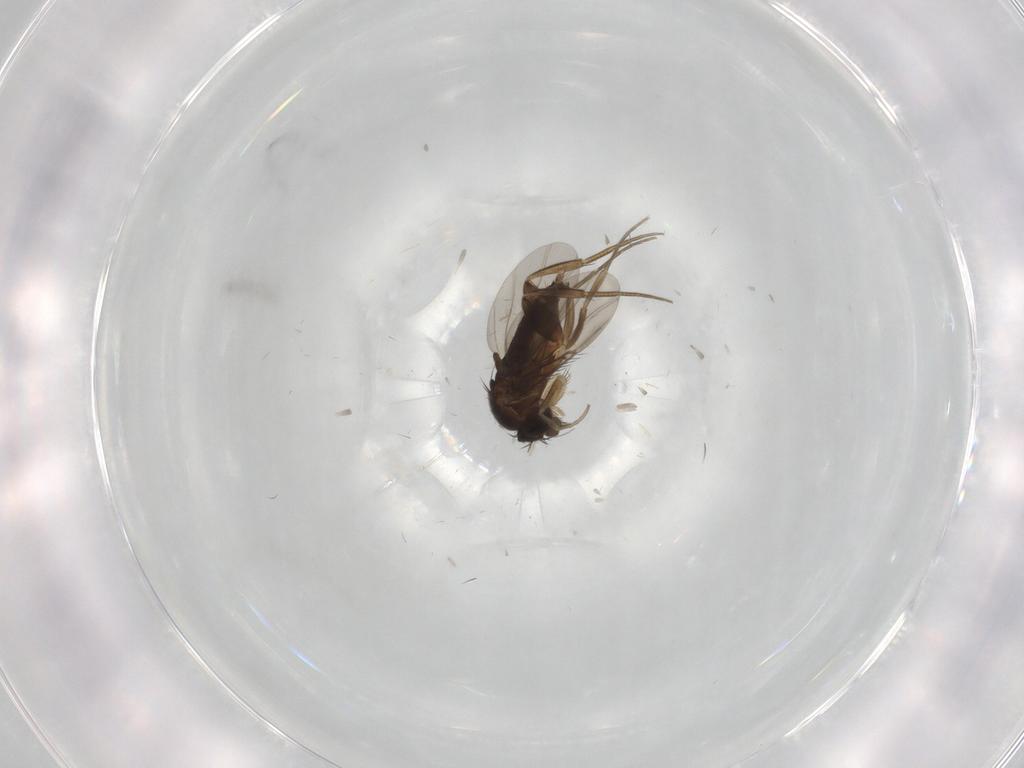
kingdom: Animalia
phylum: Arthropoda
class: Insecta
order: Diptera
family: Phoridae
